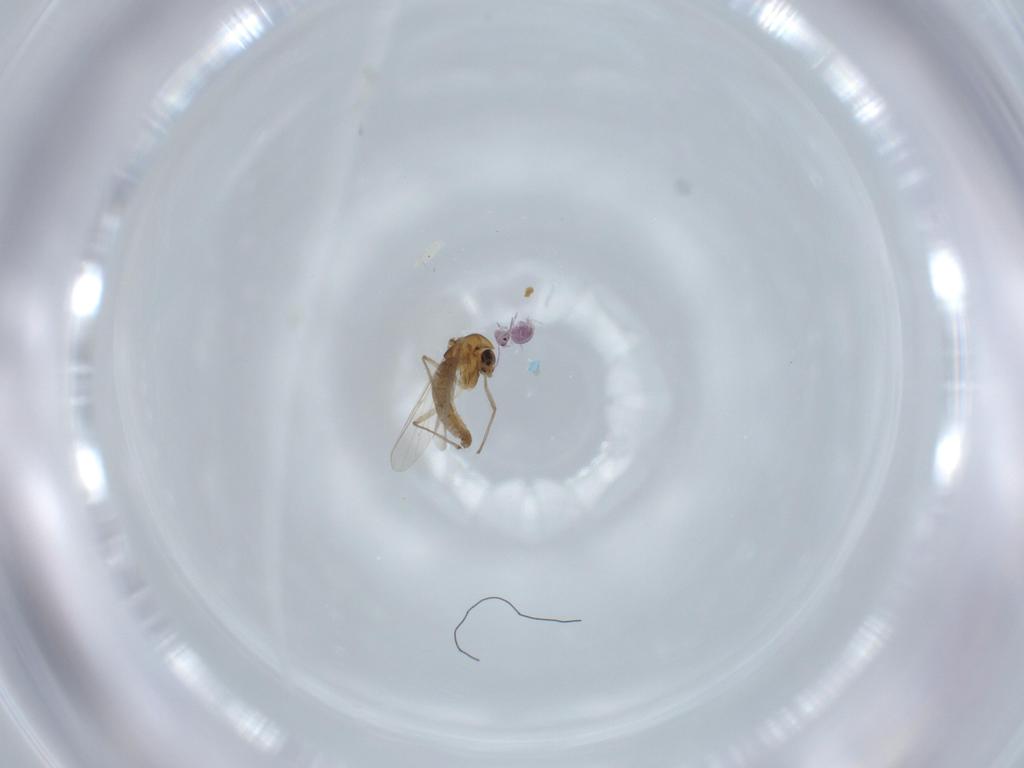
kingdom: Animalia
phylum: Arthropoda
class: Insecta
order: Diptera
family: Chironomidae
